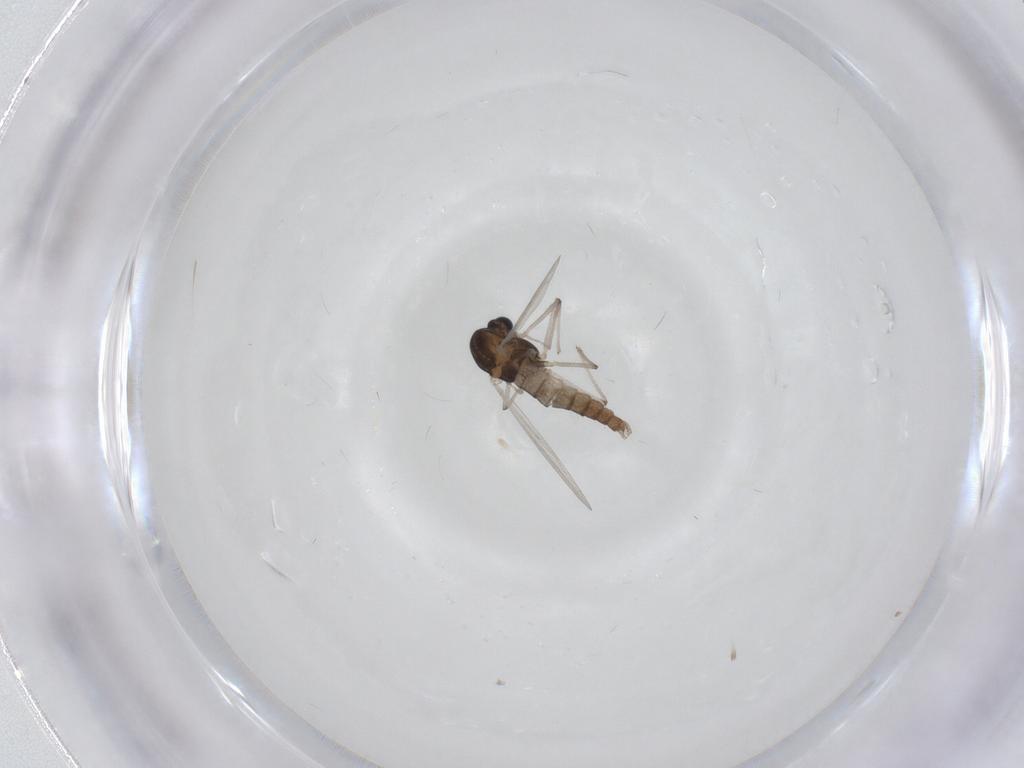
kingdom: Animalia
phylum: Arthropoda
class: Insecta
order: Diptera
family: Chironomidae
